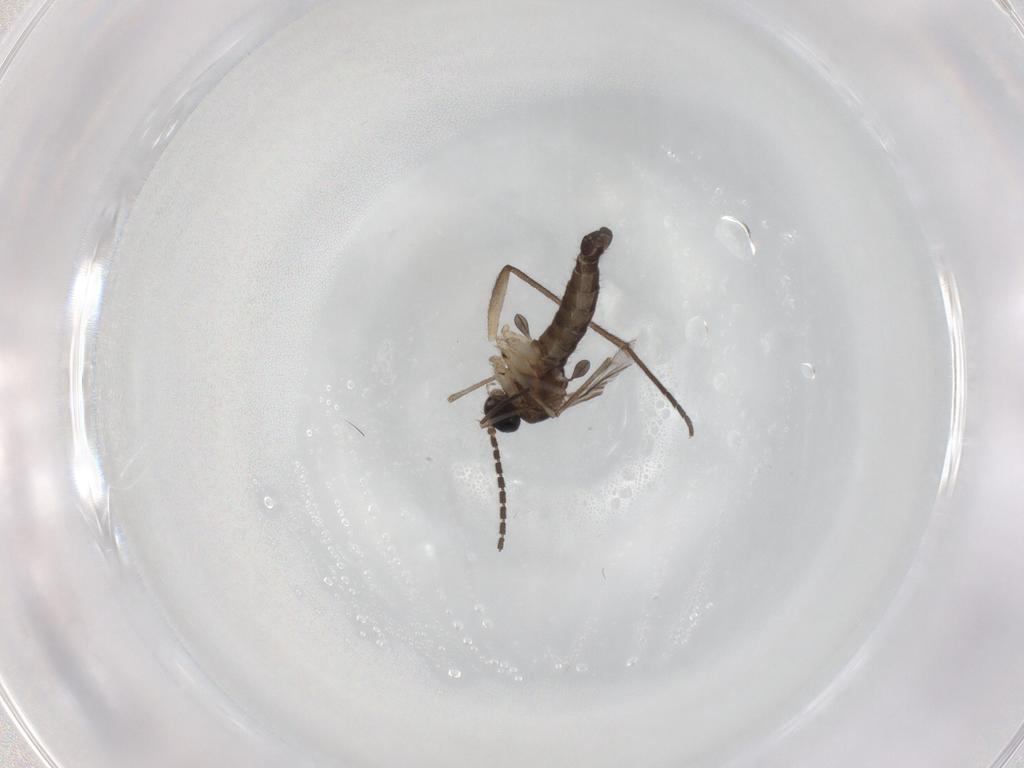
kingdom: Animalia
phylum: Arthropoda
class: Insecta
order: Diptera
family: Sciaridae
